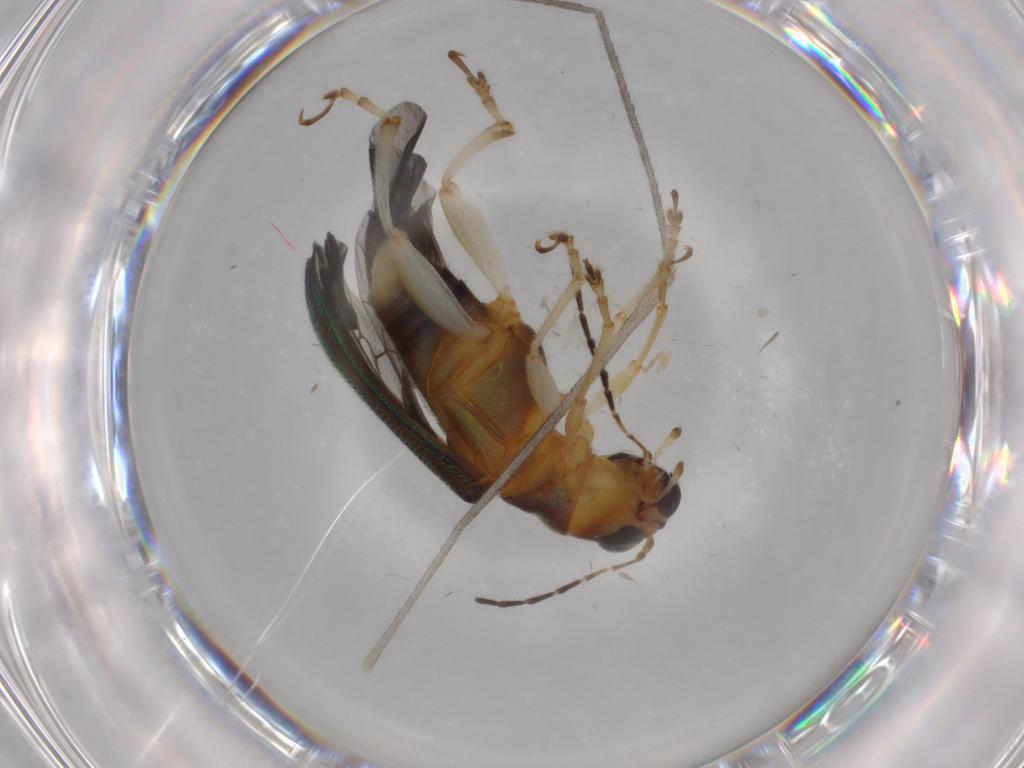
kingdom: Animalia
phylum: Arthropoda
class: Insecta
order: Coleoptera
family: Chrysomelidae
